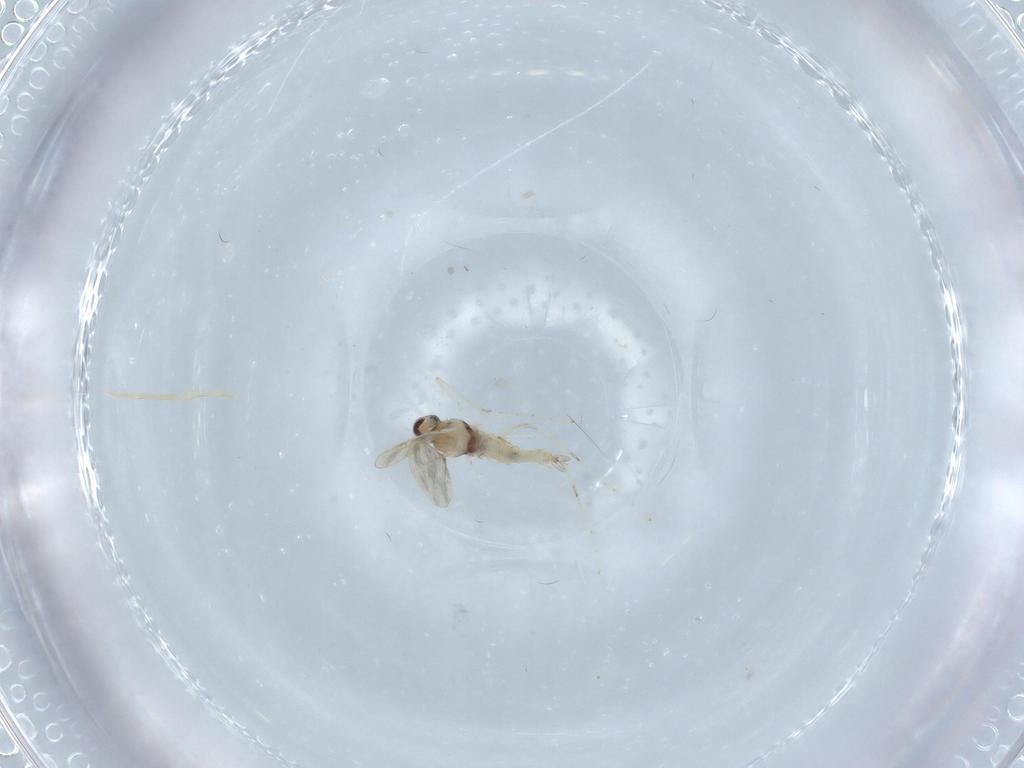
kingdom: Animalia
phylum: Arthropoda
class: Insecta
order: Diptera
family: Cecidomyiidae
